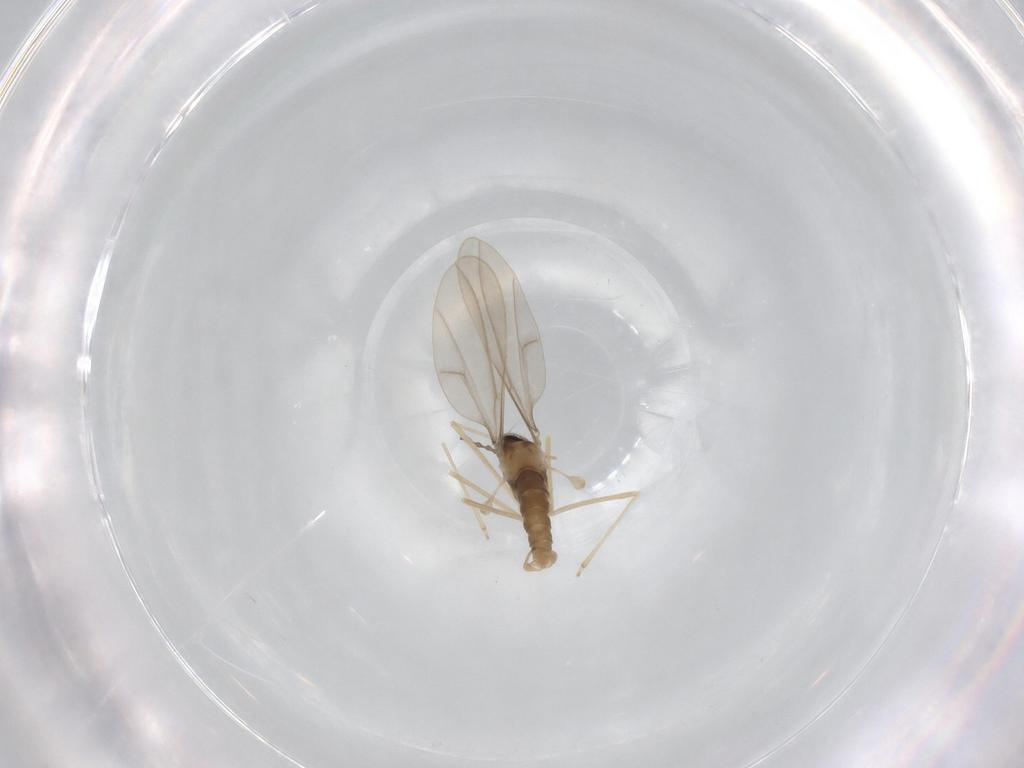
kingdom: Animalia
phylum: Arthropoda
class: Insecta
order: Diptera
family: Cecidomyiidae
